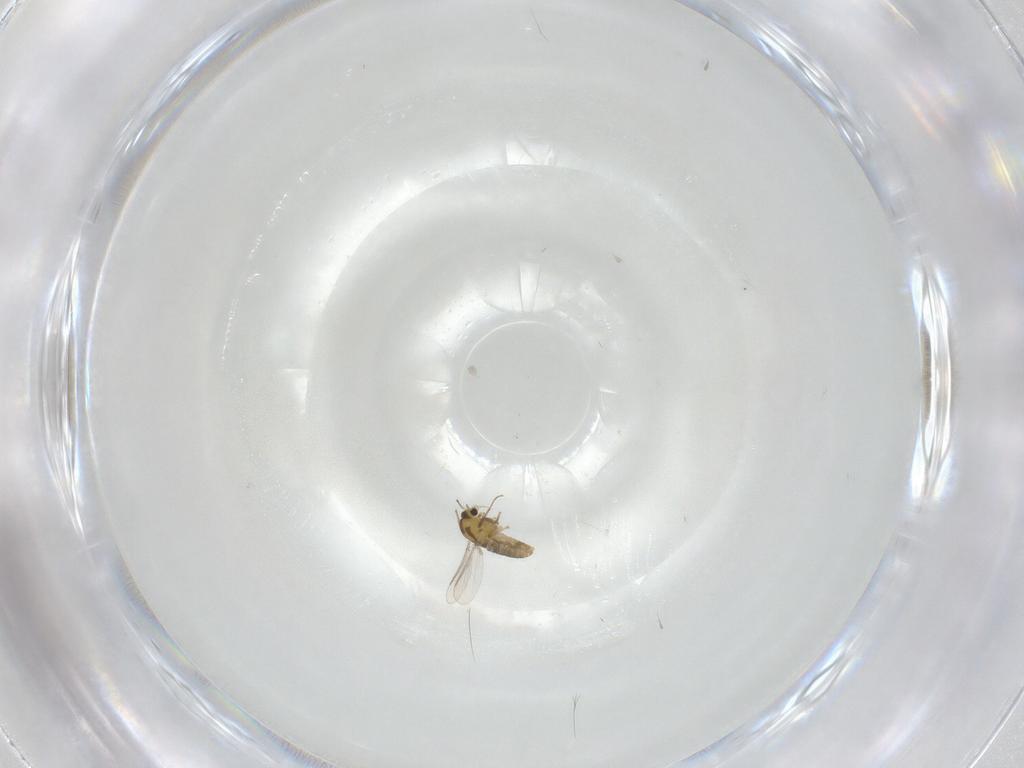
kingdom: Animalia
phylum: Arthropoda
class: Insecta
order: Diptera
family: Chironomidae
